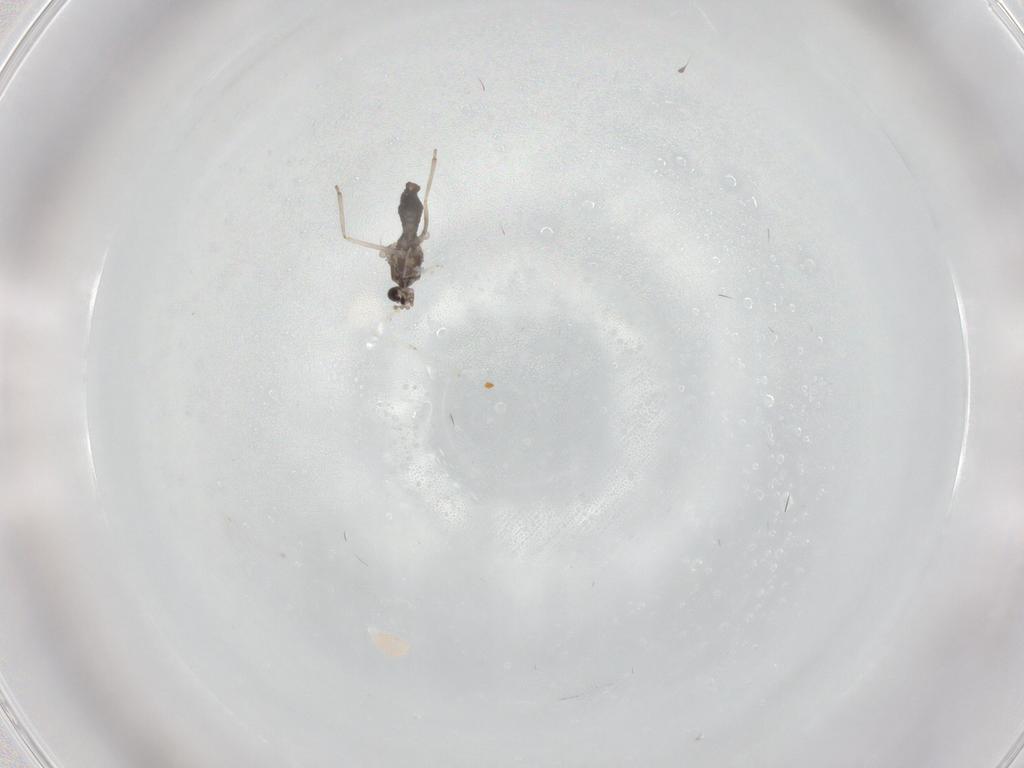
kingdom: Animalia
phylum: Arthropoda
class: Insecta
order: Diptera
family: Cecidomyiidae
